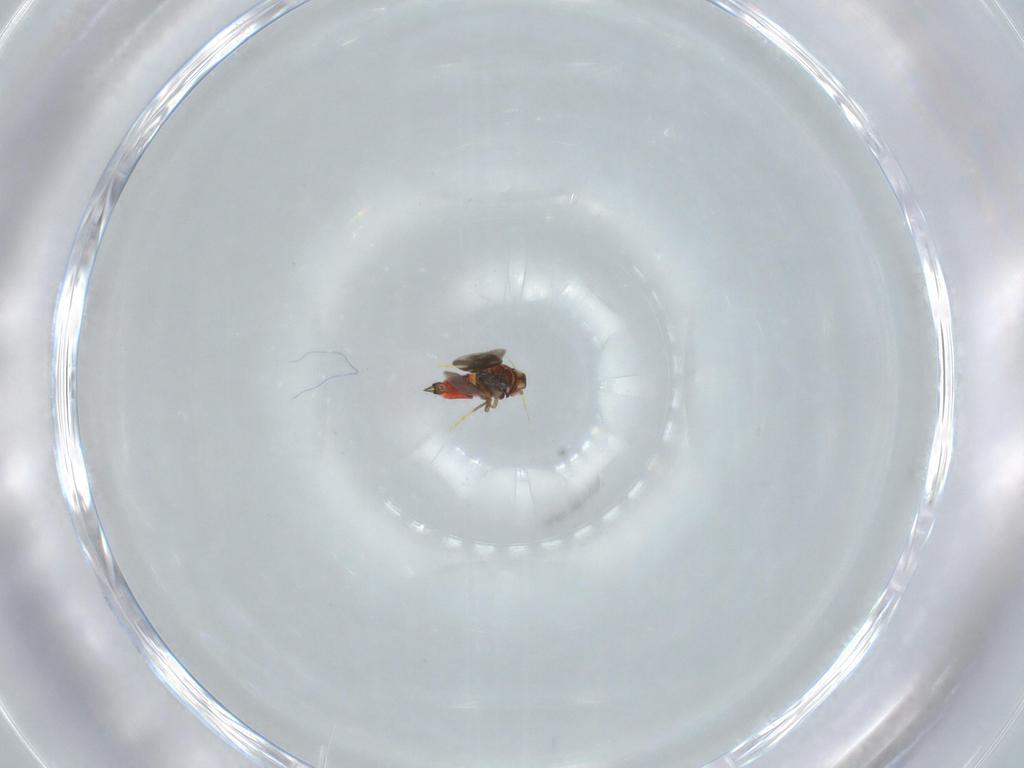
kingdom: Animalia
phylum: Arthropoda
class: Insecta
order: Hemiptera
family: Aleyrodidae
